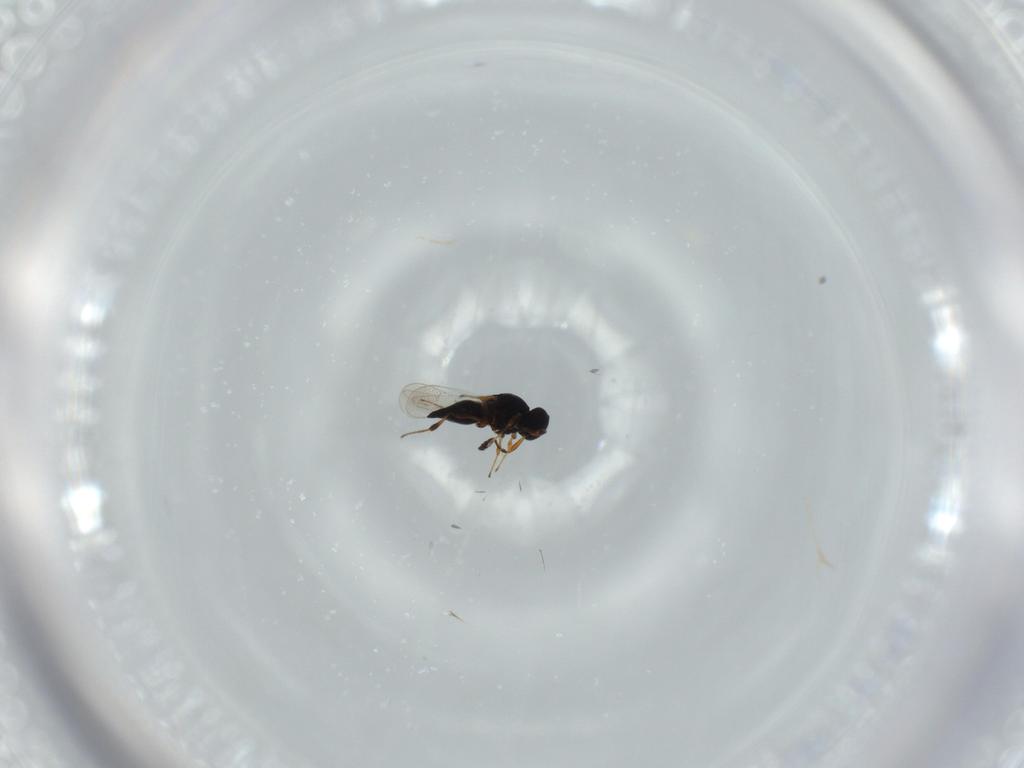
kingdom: Animalia
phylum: Arthropoda
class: Insecta
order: Hymenoptera
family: Platygastridae
